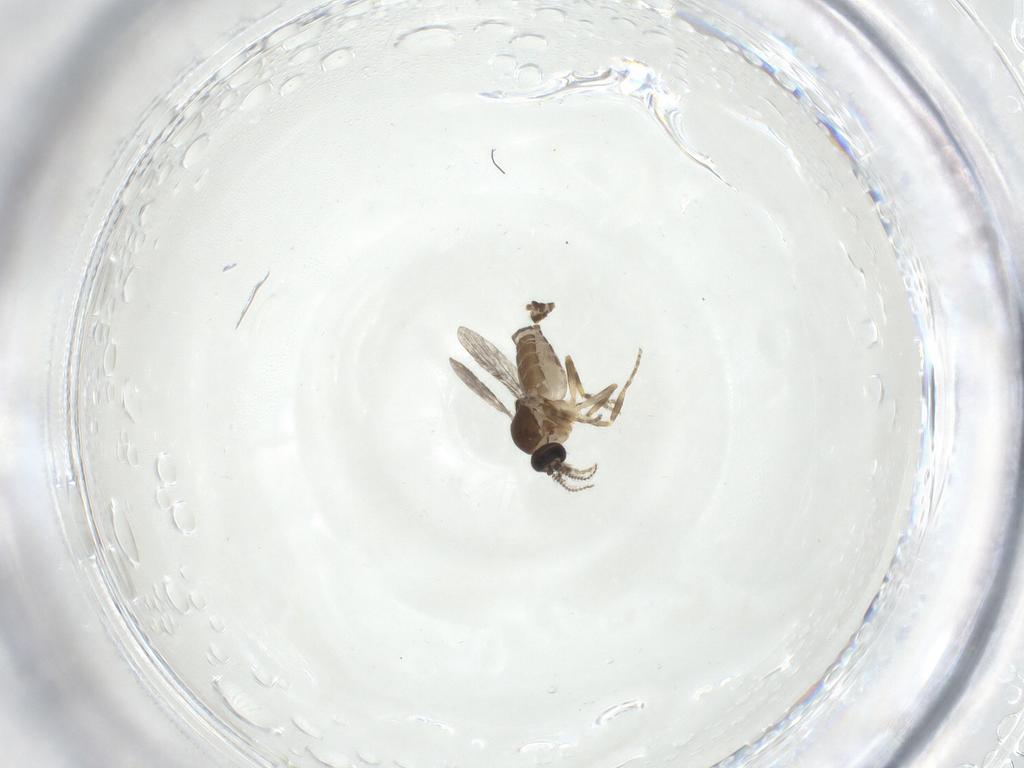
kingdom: Animalia
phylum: Arthropoda
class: Insecta
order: Diptera
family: Ceratopogonidae
